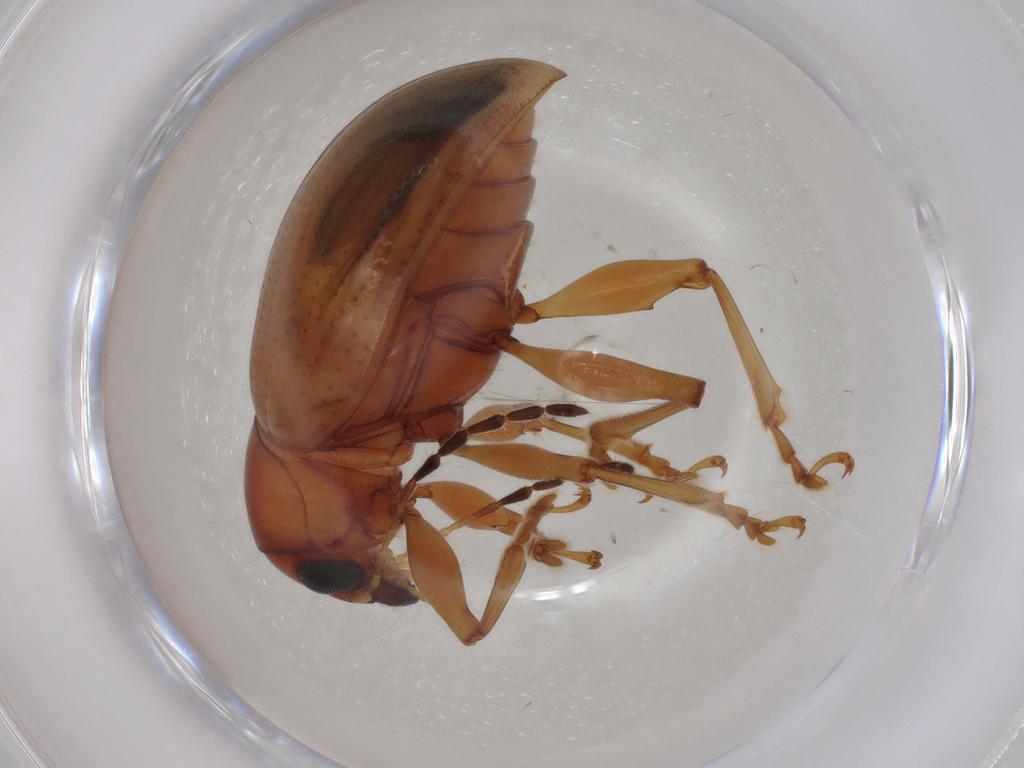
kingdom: Animalia
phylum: Arthropoda
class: Insecta
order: Coleoptera
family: Chrysomelidae
